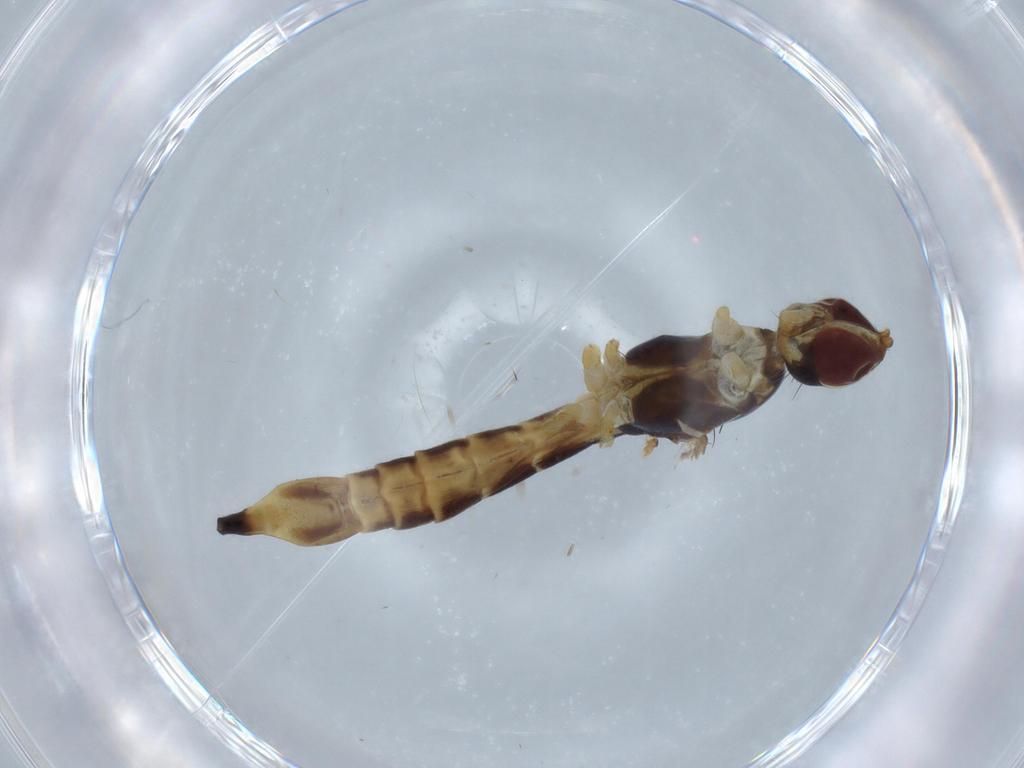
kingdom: Animalia
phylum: Arthropoda
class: Insecta
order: Diptera
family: Micropezidae
